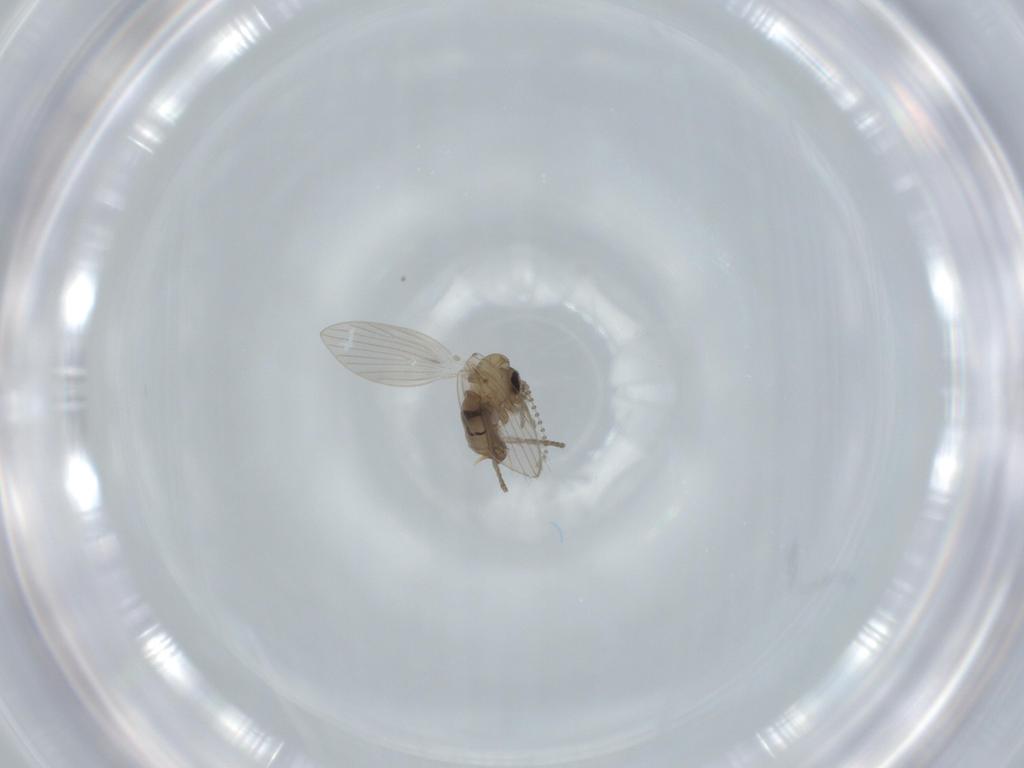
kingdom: Animalia
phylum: Arthropoda
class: Insecta
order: Diptera
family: Psychodidae
